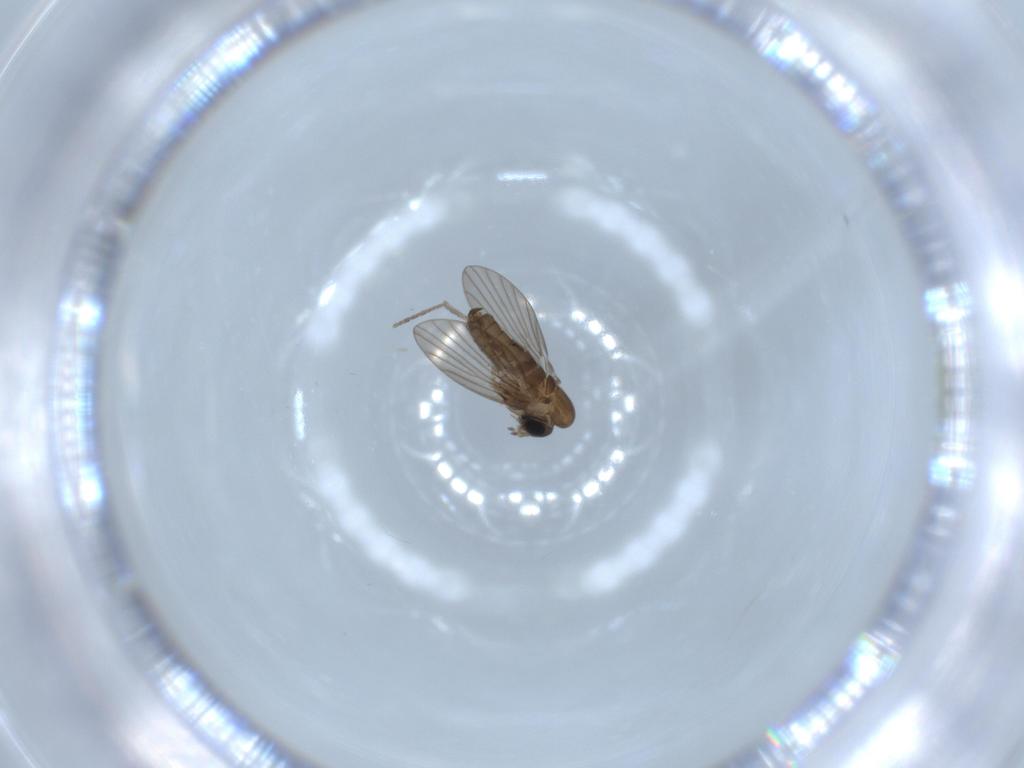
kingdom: Animalia
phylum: Arthropoda
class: Insecta
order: Diptera
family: Psychodidae
